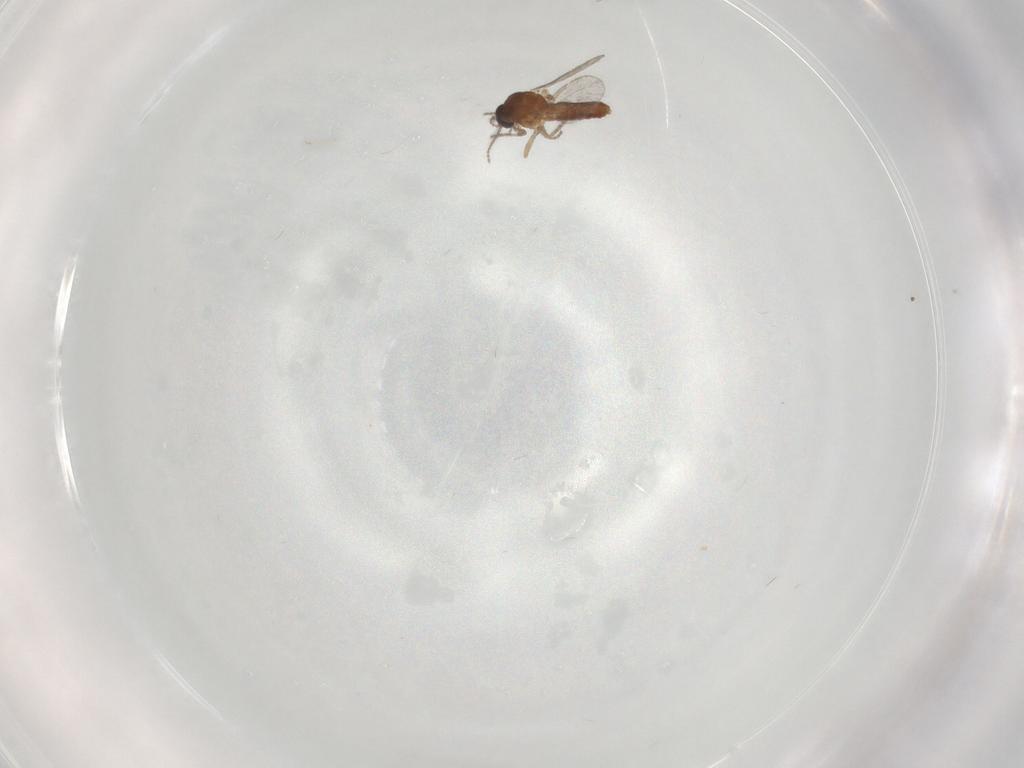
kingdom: Animalia
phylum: Arthropoda
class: Insecta
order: Diptera
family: Ceratopogonidae
